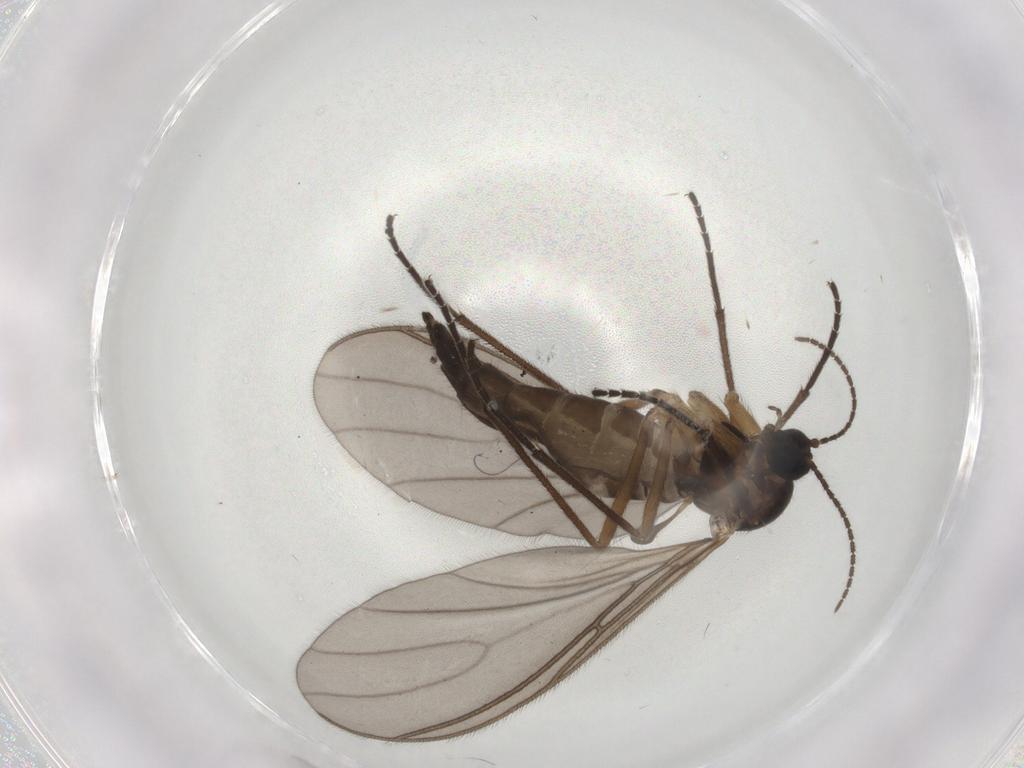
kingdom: Animalia
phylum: Arthropoda
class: Insecta
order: Diptera
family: Sciaridae
